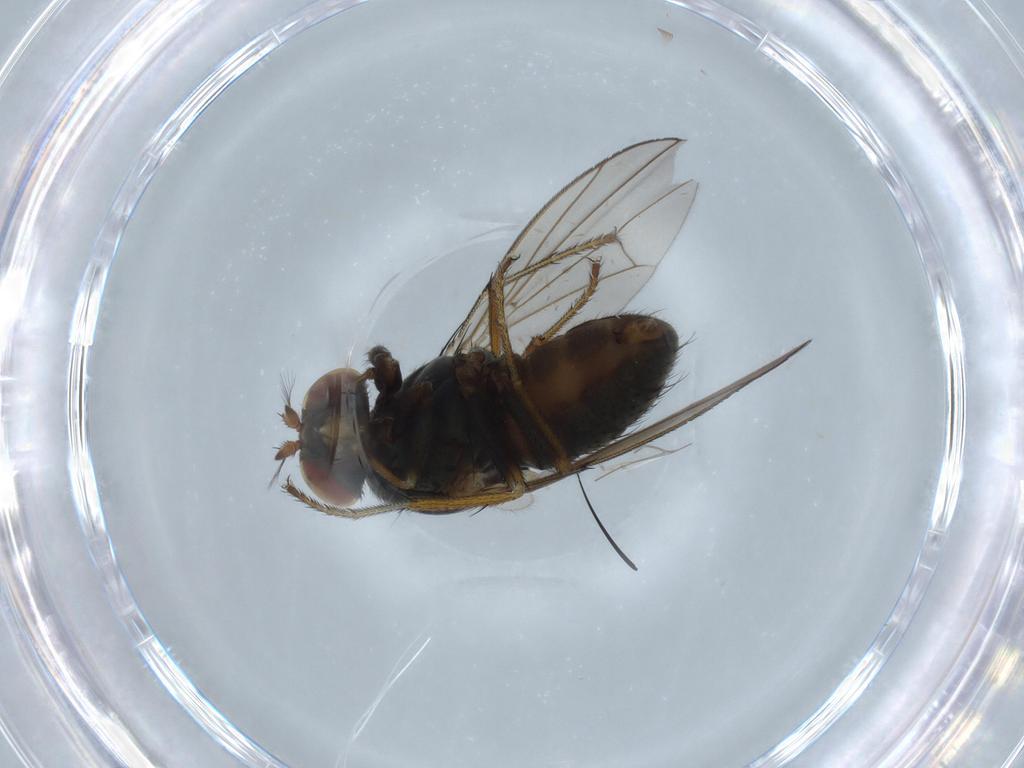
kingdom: Animalia
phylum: Arthropoda
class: Insecta
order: Diptera
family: Ephydridae
